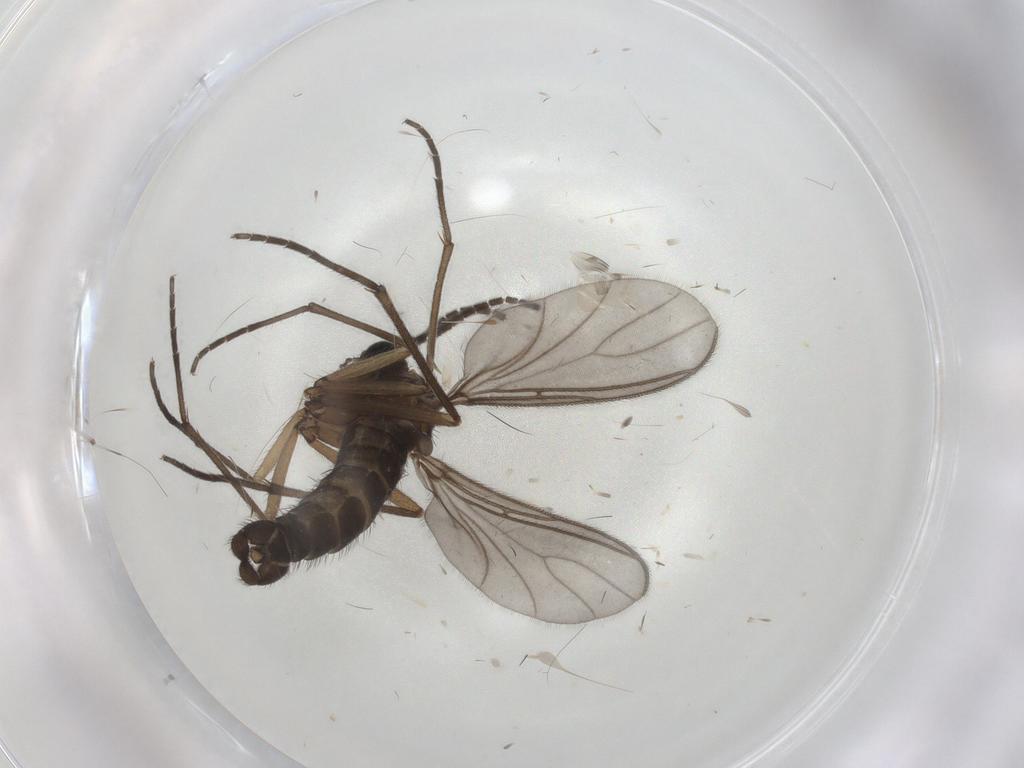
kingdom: Animalia
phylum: Arthropoda
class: Insecta
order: Diptera
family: Sciaridae
